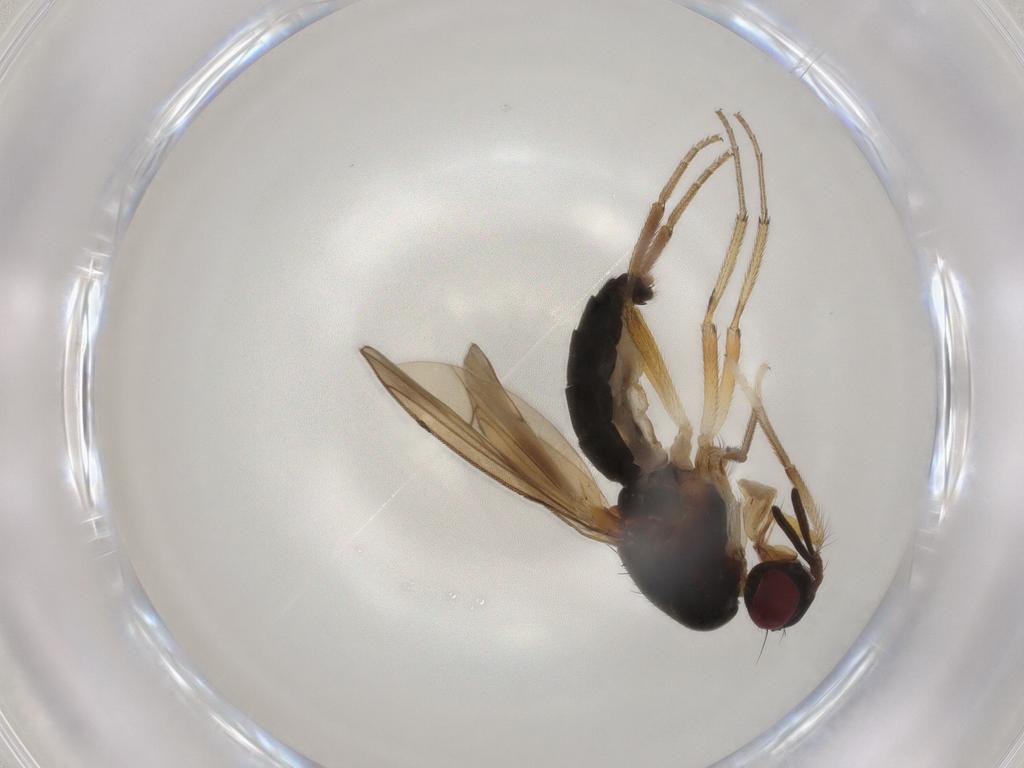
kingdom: Animalia
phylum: Arthropoda
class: Insecta
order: Diptera
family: Lauxaniidae
